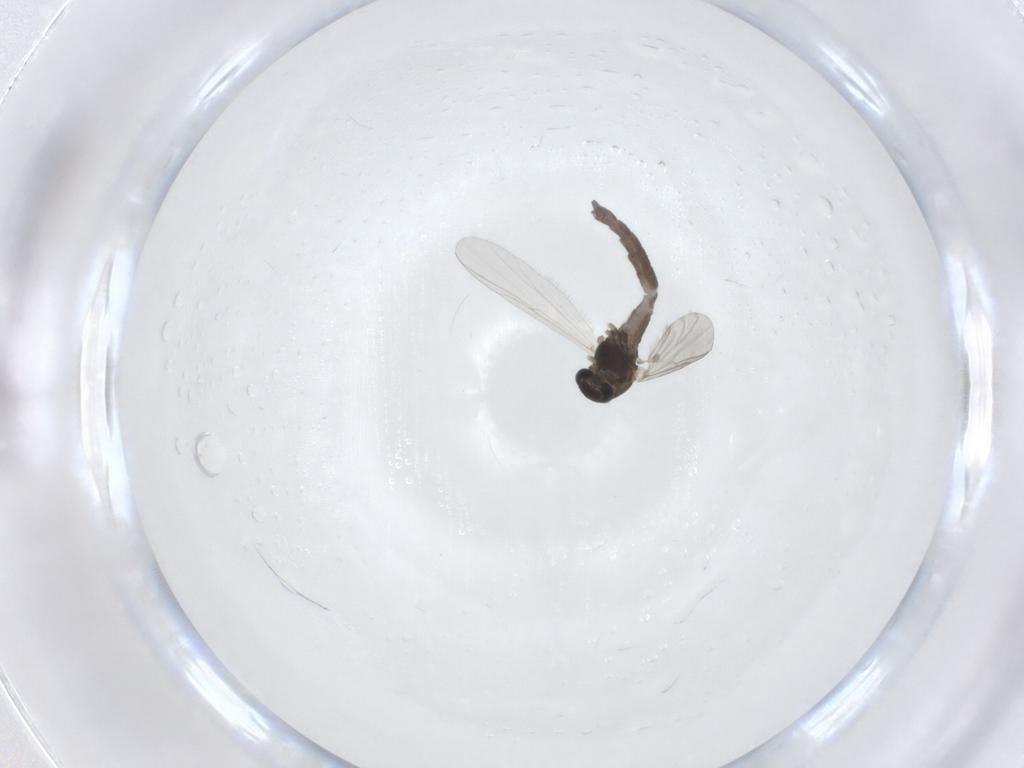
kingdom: Animalia
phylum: Arthropoda
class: Insecta
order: Diptera
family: Chironomidae
